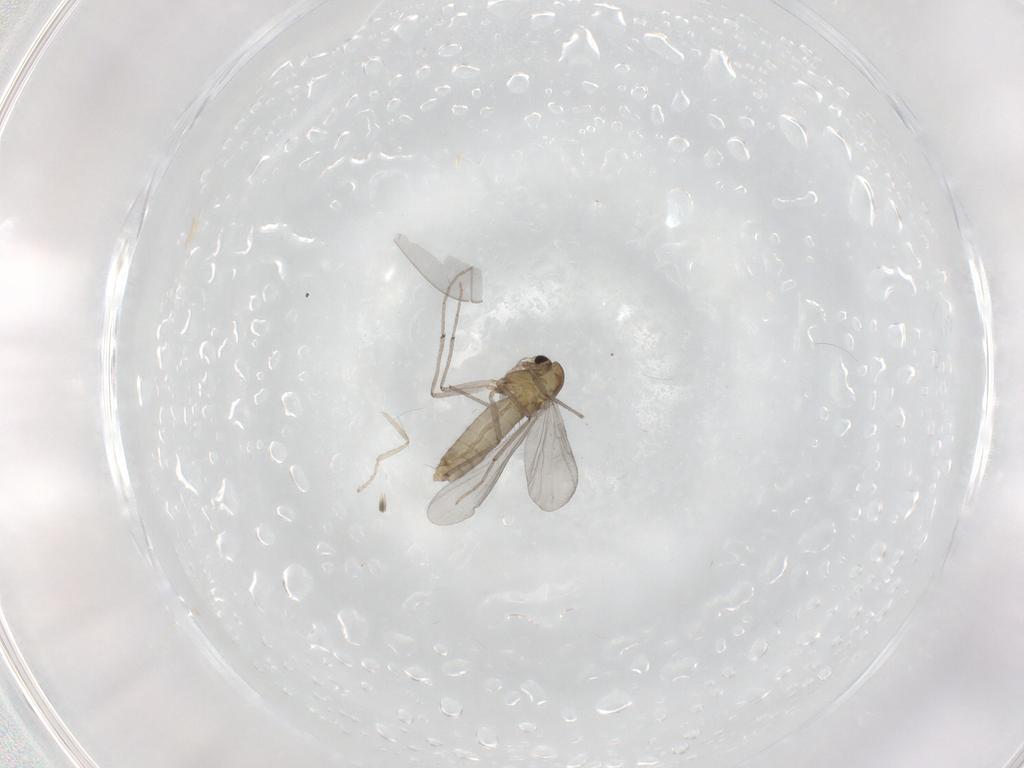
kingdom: Animalia
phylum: Arthropoda
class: Insecta
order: Diptera
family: Chironomidae
